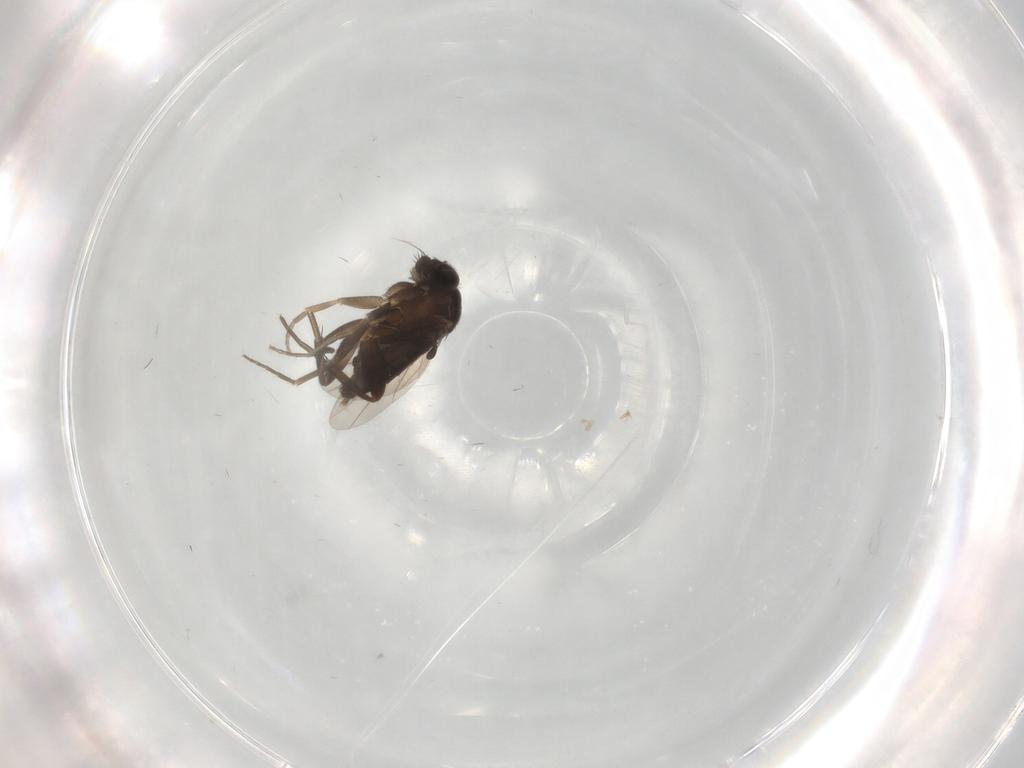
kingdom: Animalia
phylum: Arthropoda
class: Insecta
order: Diptera
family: Phoridae
